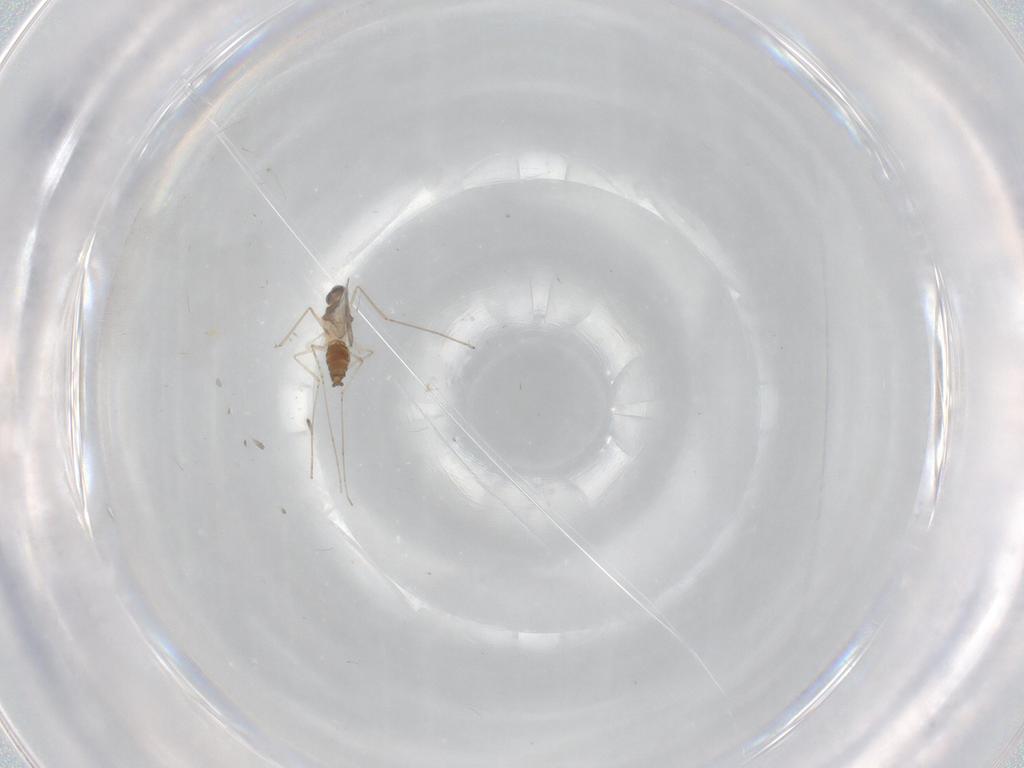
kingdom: Animalia
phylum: Arthropoda
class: Insecta
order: Diptera
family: Cecidomyiidae
